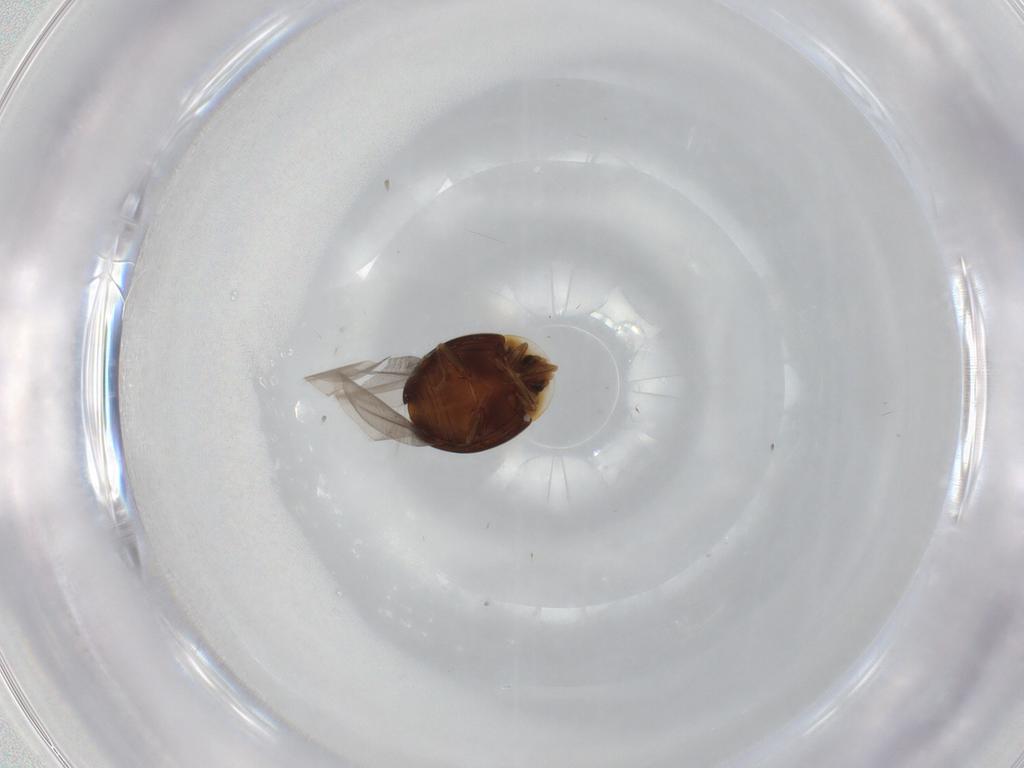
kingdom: Animalia
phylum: Arthropoda
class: Insecta
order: Coleoptera
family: Corylophidae
